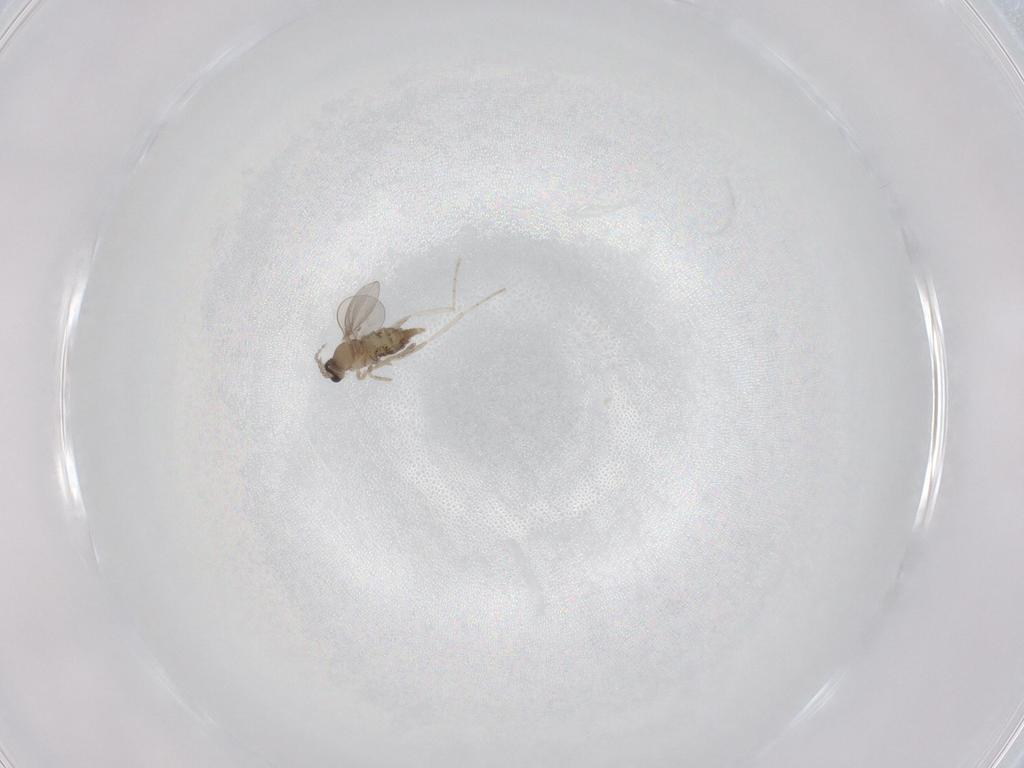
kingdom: Animalia
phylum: Arthropoda
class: Insecta
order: Diptera
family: Cecidomyiidae
